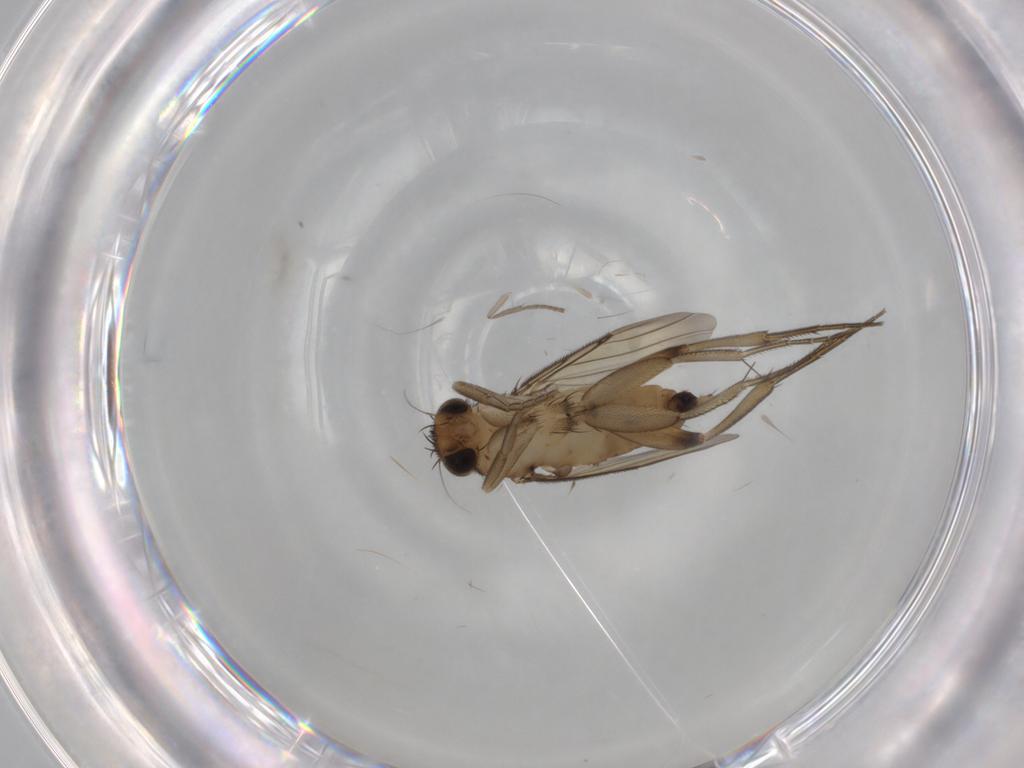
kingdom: Animalia
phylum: Arthropoda
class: Insecta
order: Diptera
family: Phoridae
